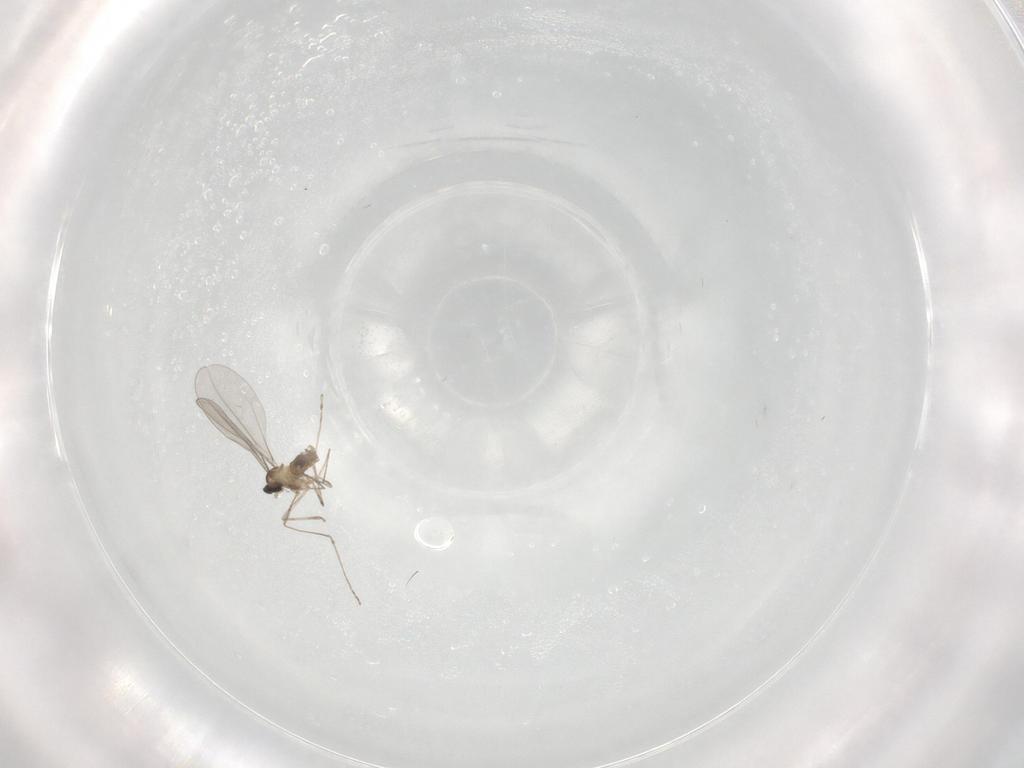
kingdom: Animalia
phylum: Arthropoda
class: Insecta
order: Diptera
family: Cecidomyiidae
